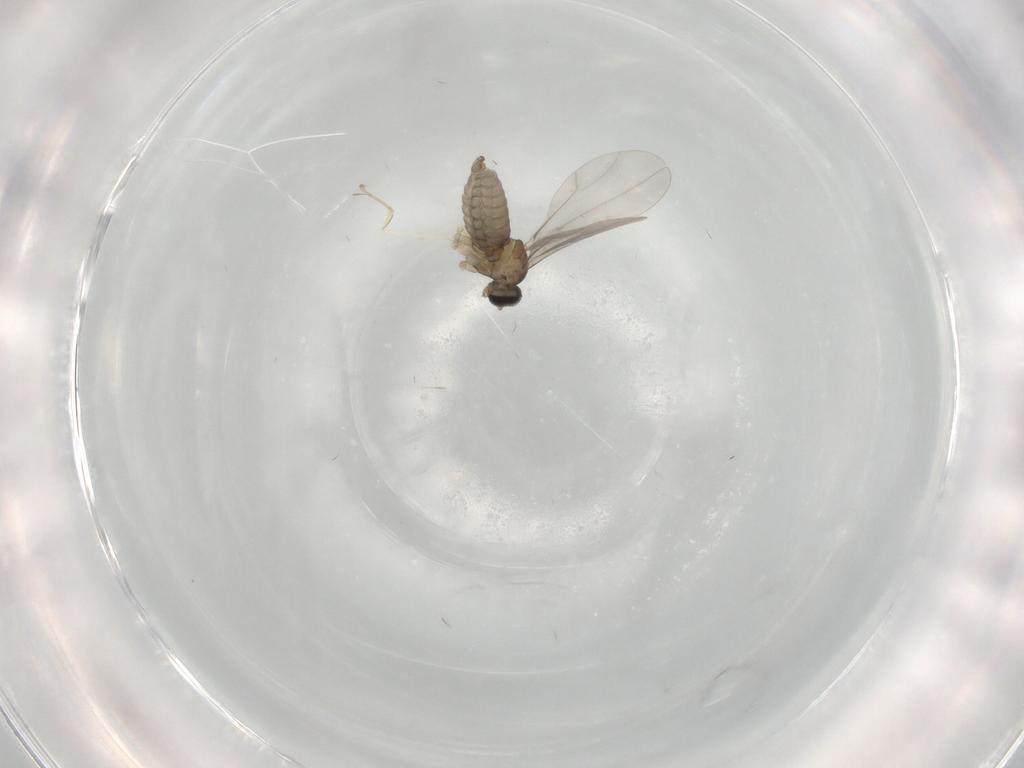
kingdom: Animalia
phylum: Arthropoda
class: Insecta
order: Diptera
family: Cecidomyiidae
